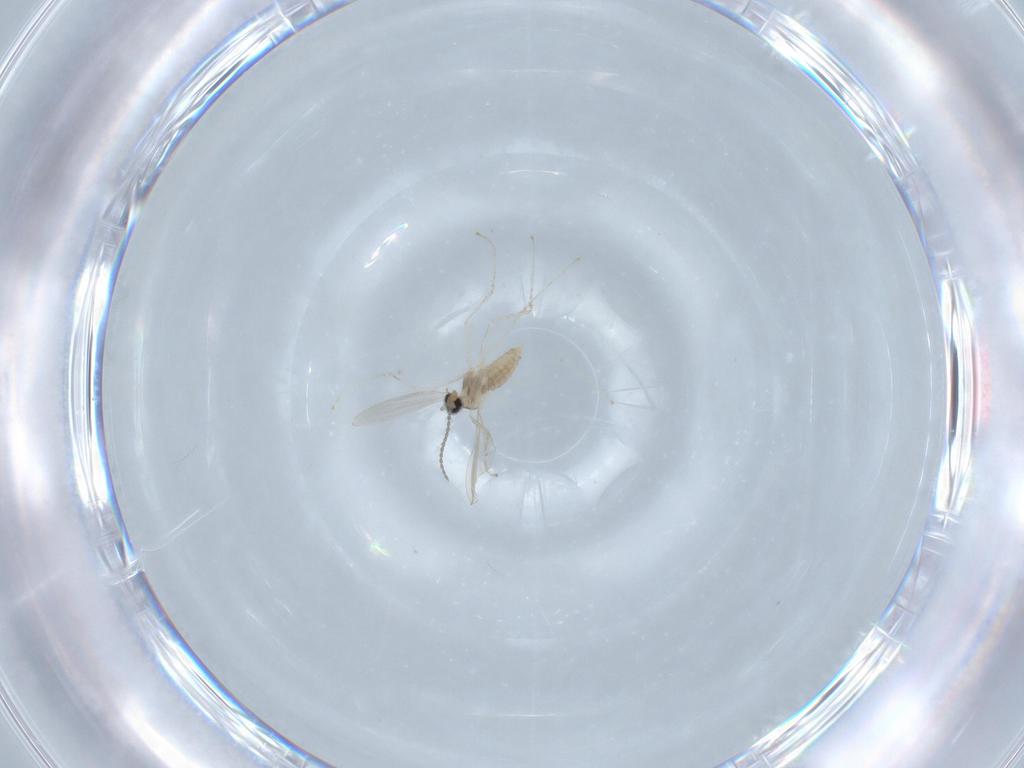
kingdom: Animalia
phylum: Arthropoda
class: Insecta
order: Diptera
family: Cecidomyiidae
